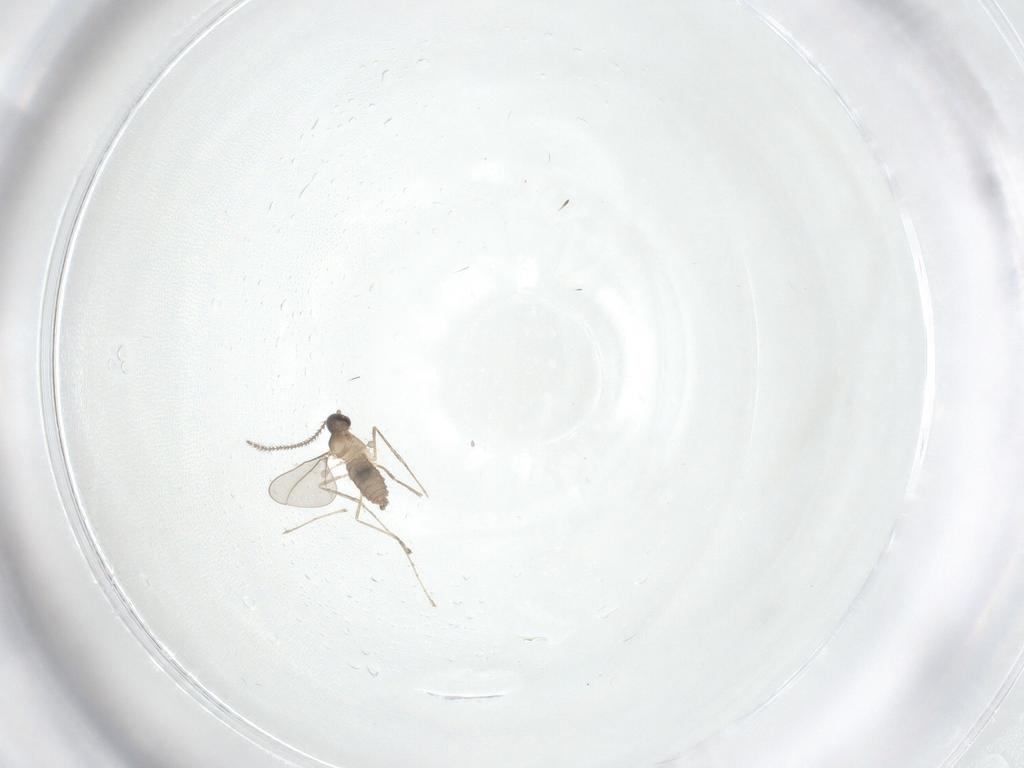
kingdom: Animalia
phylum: Arthropoda
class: Insecta
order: Diptera
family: Cecidomyiidae
